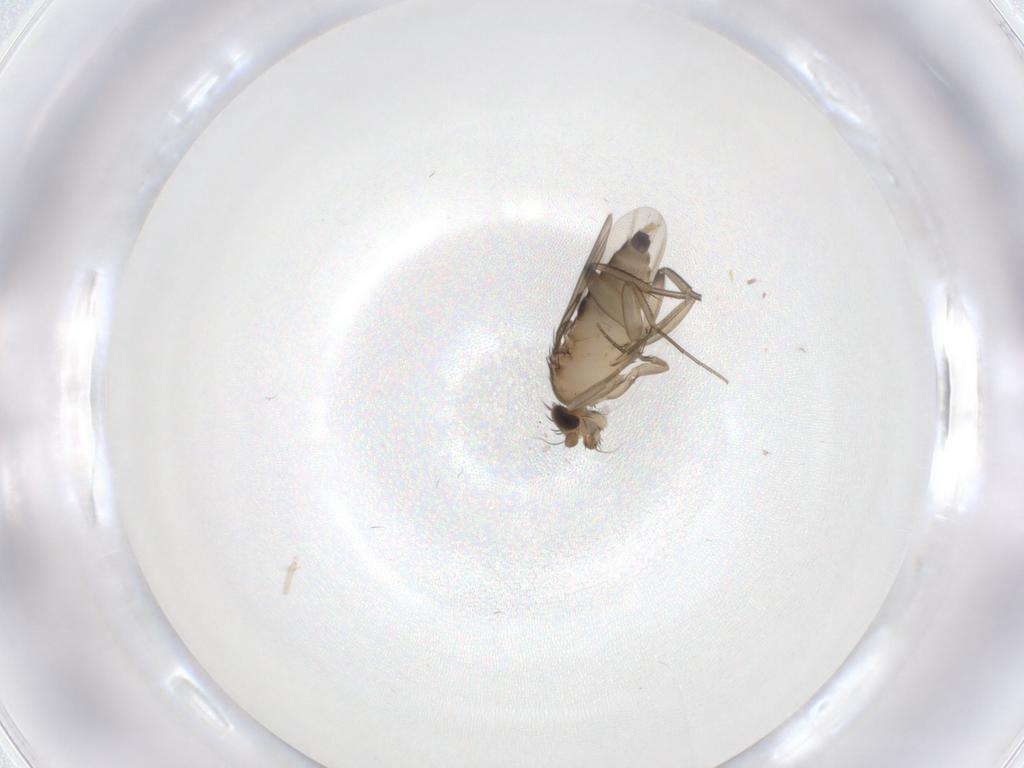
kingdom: Animalia
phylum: Arthropoda
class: Insecta
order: Diptera
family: Phoridae
